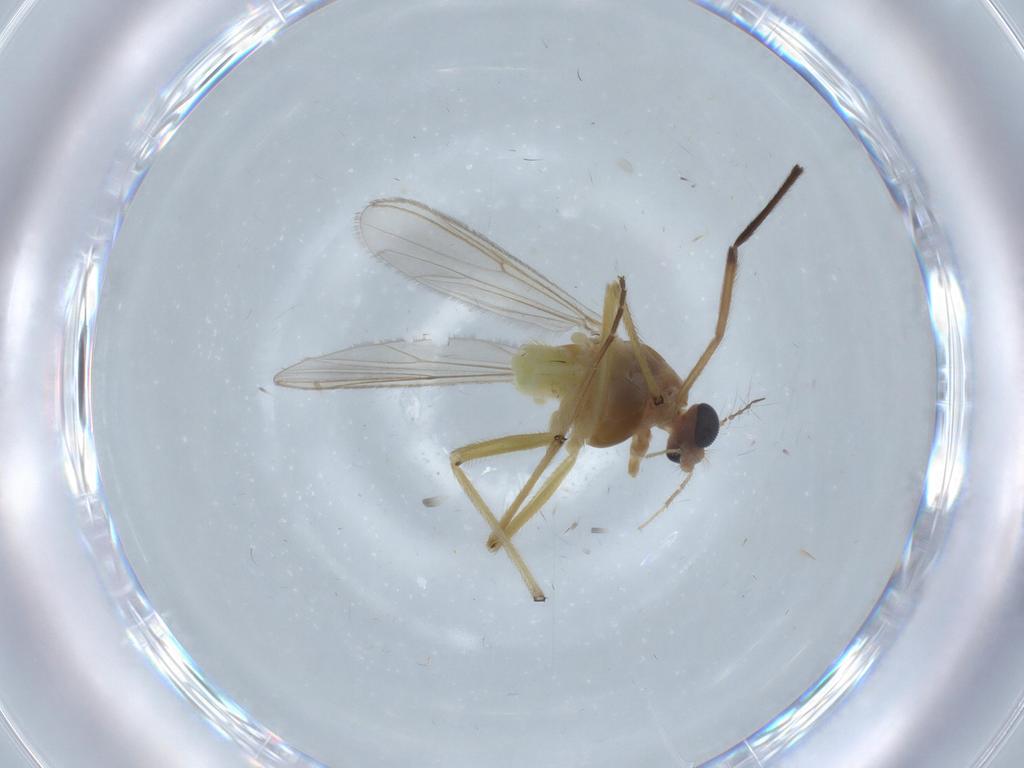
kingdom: Animalia
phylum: Arthropoda
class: Insecta
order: Diptera
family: Chironomidae
